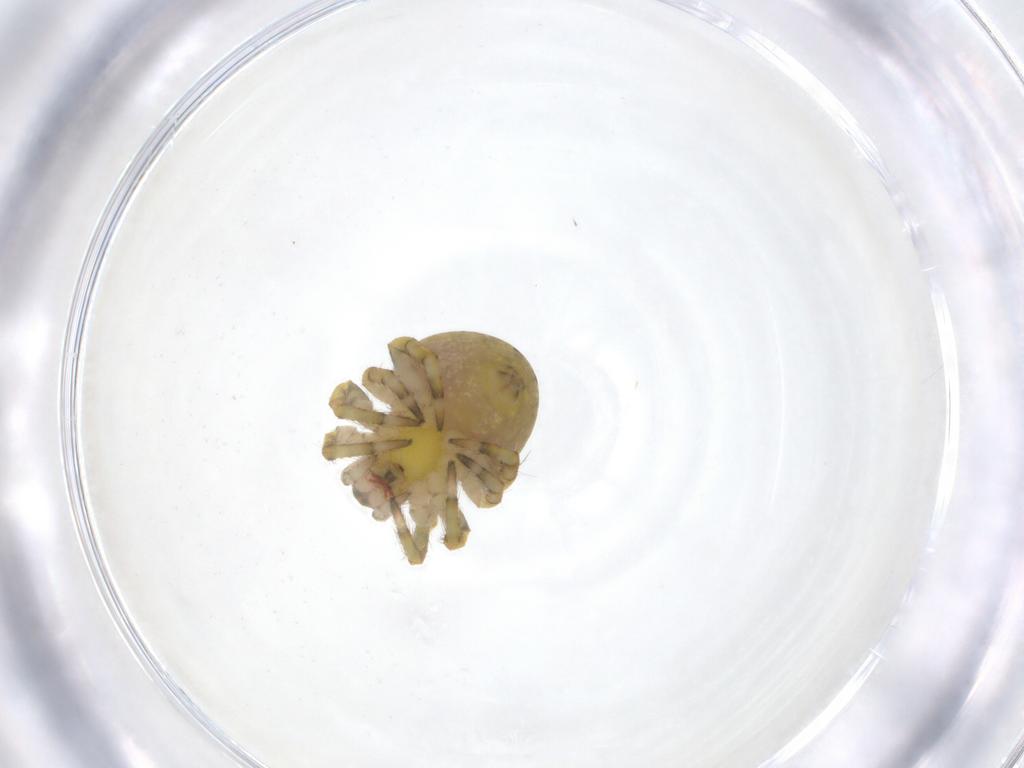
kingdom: Animalia
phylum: Arthropoda
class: Arachnida
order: Araneae
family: Araneidae
